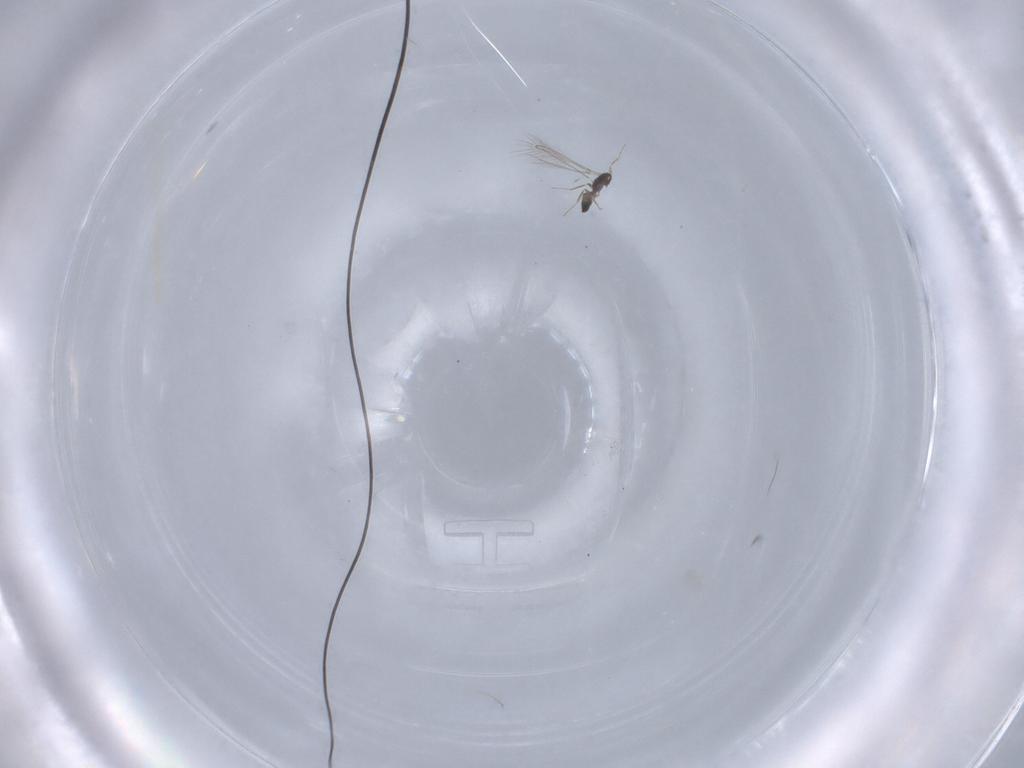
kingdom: Animalia
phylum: Arthropoda
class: Insecta
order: Hymenoptera
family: Mymaridae
